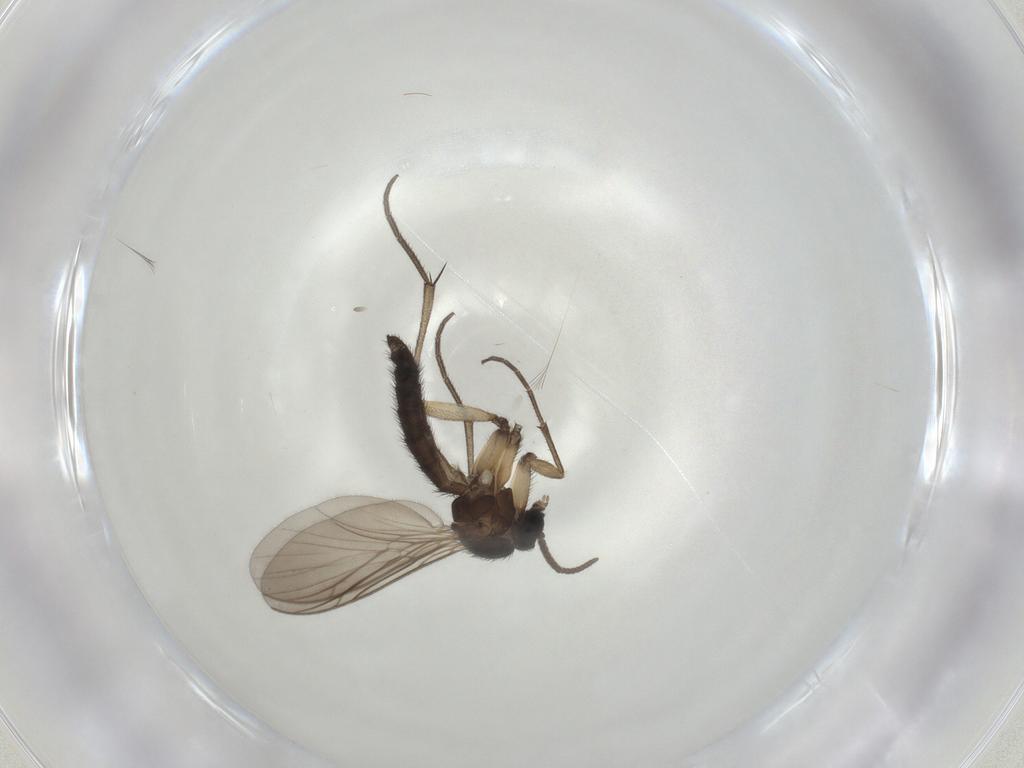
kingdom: Animalia
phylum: Arthropoda
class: Insecta
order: Diptera
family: Keroplatidae
